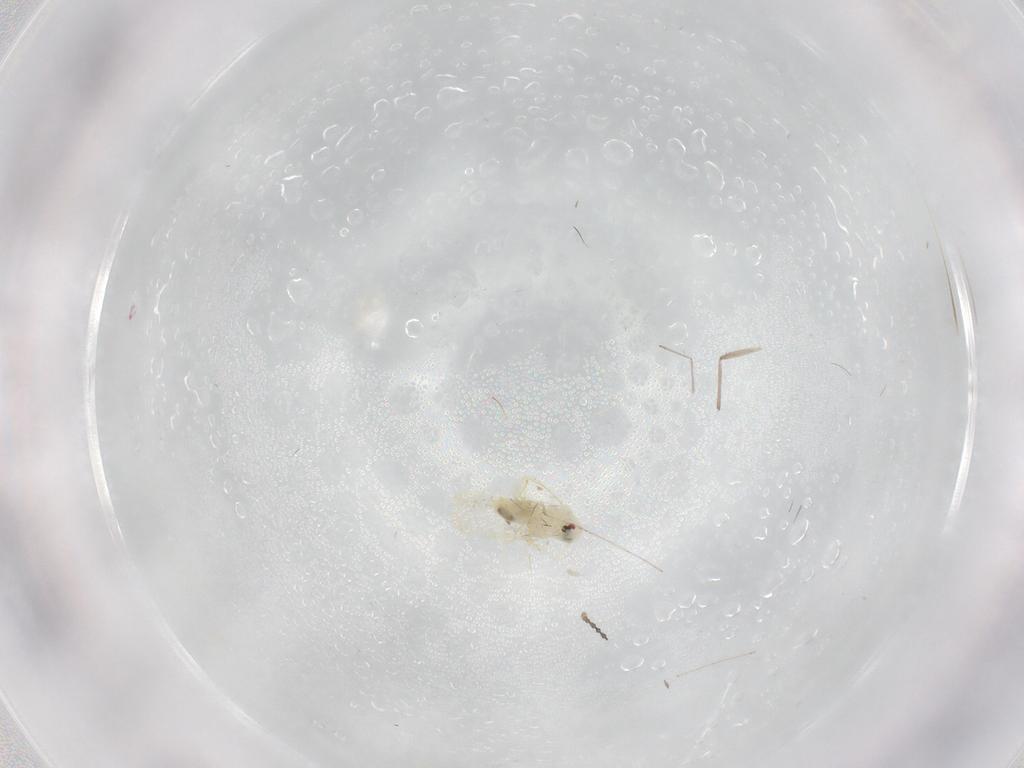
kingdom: Animalia
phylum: Arthropoda
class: Insecta
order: Hemiptera
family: Aleyrodidae
